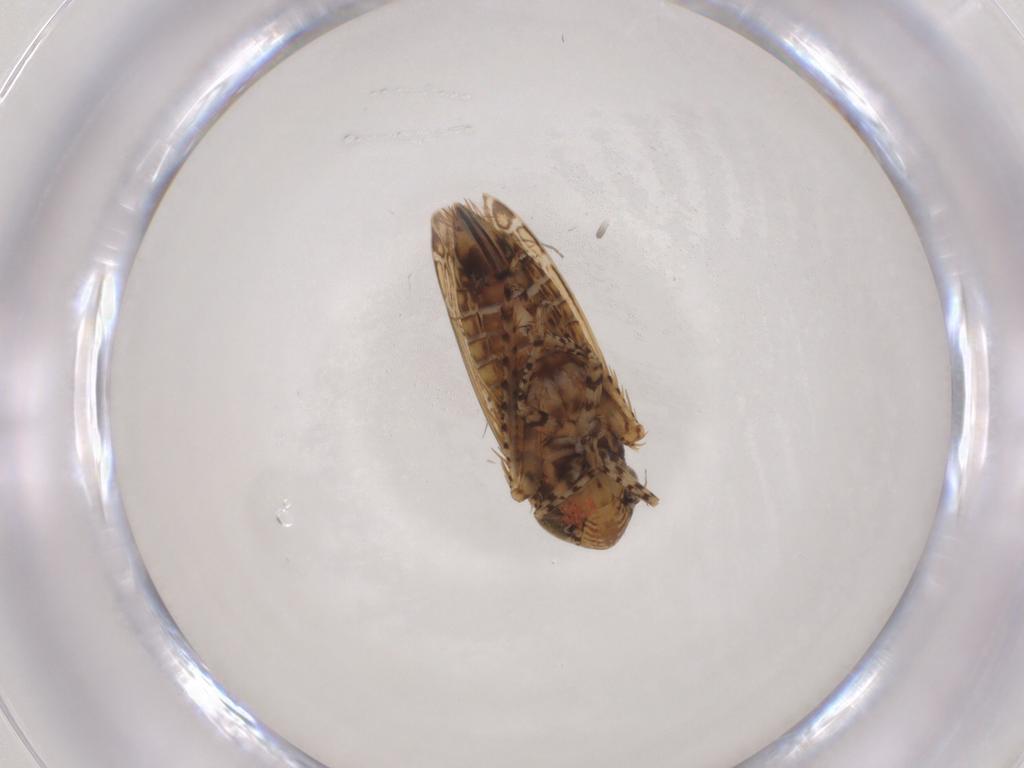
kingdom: Animalia
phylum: Arthropoda
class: Insecta
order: Hemiptera
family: Cicadellidae
